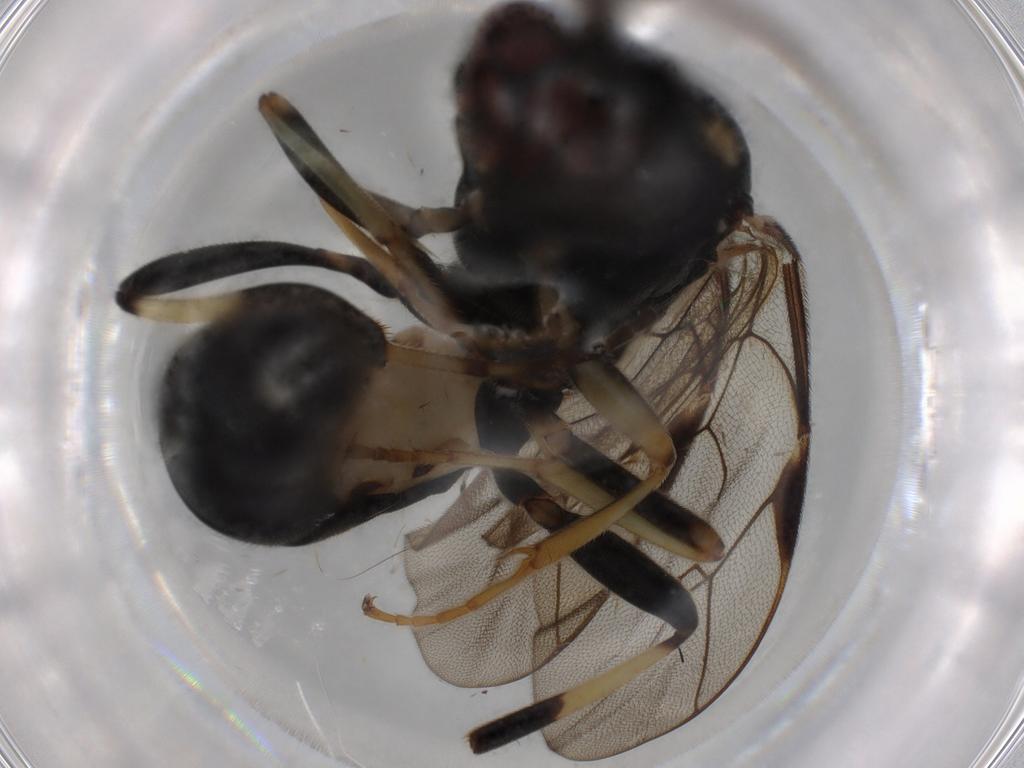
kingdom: Animalia
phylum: Arthropoda
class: Insecta
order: Hymenoptera
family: Ichneumonidae
